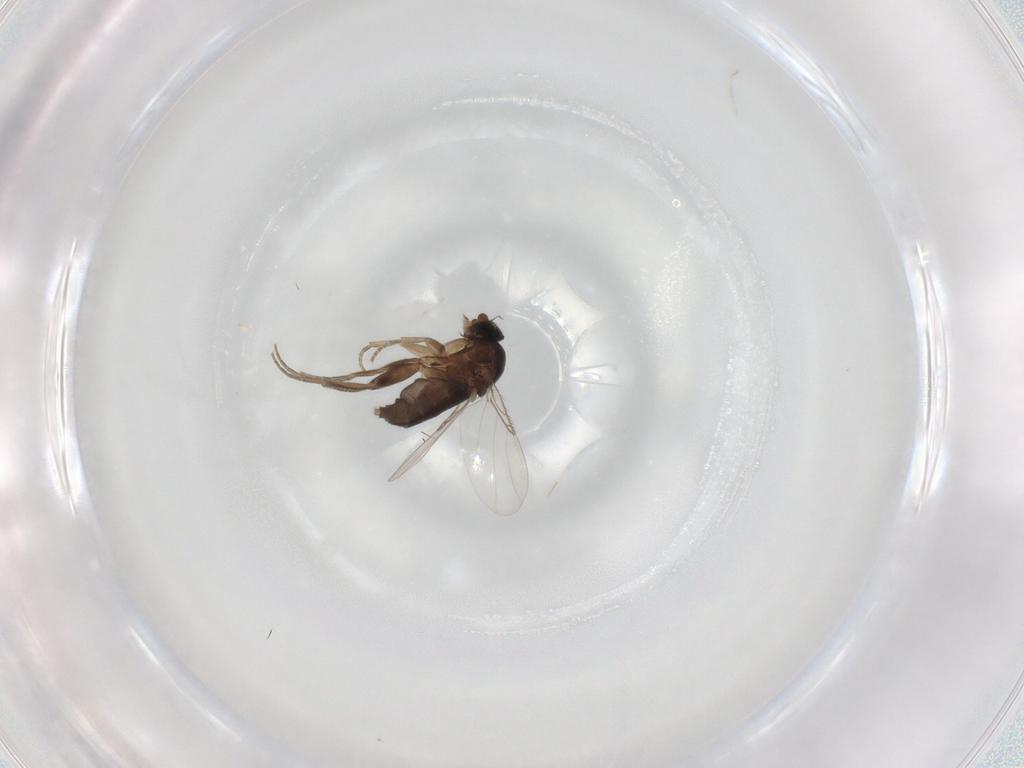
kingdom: Animalia
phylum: Arthropoda
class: Insecta
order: Diptera
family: Phoridae
